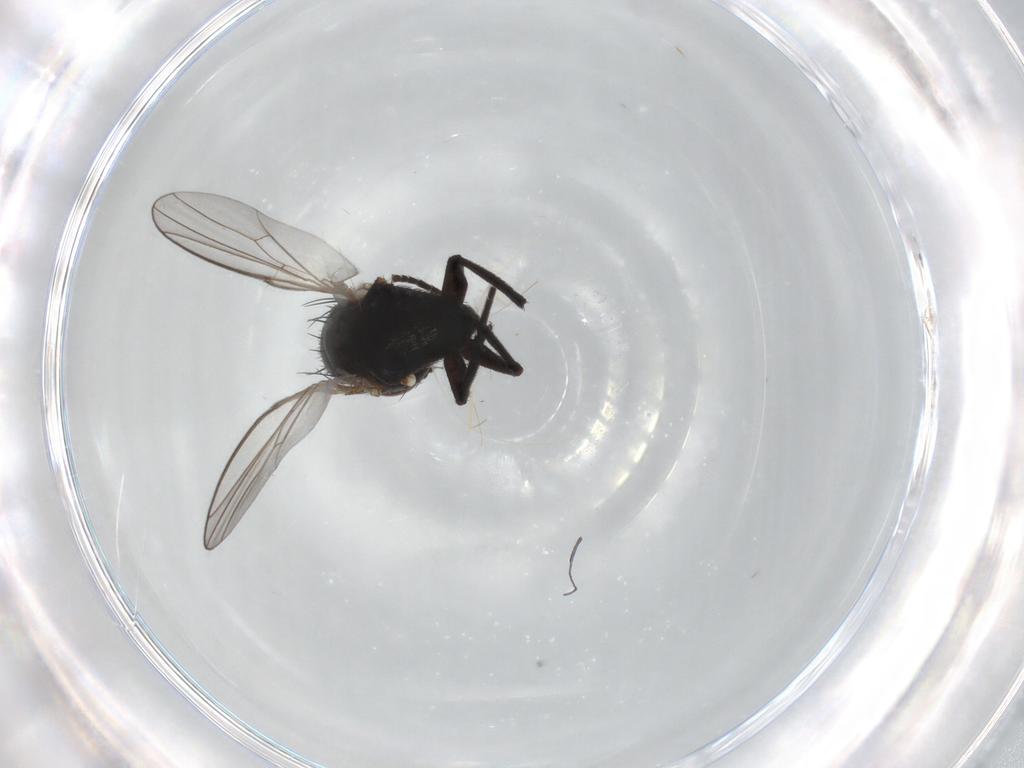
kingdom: Animalia
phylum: Arthropoda
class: Insecta
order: Diptera
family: Agromyzidae
